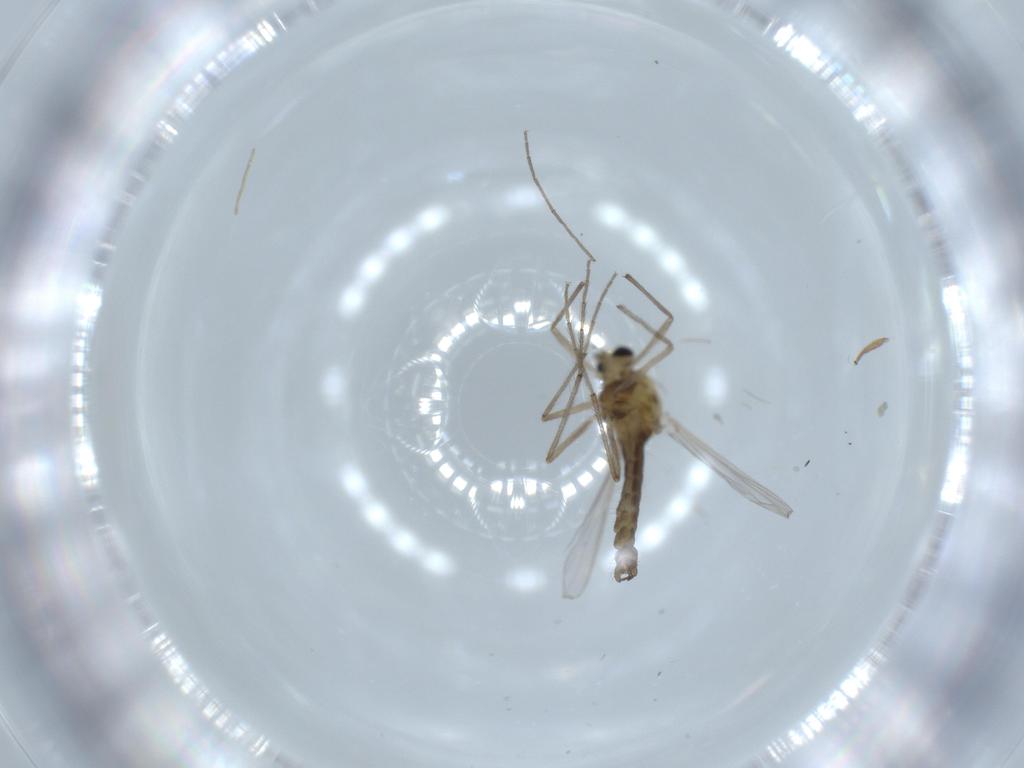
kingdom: Animalia
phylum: Arthropoda
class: Insecta
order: Diptera
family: Chironomidae
